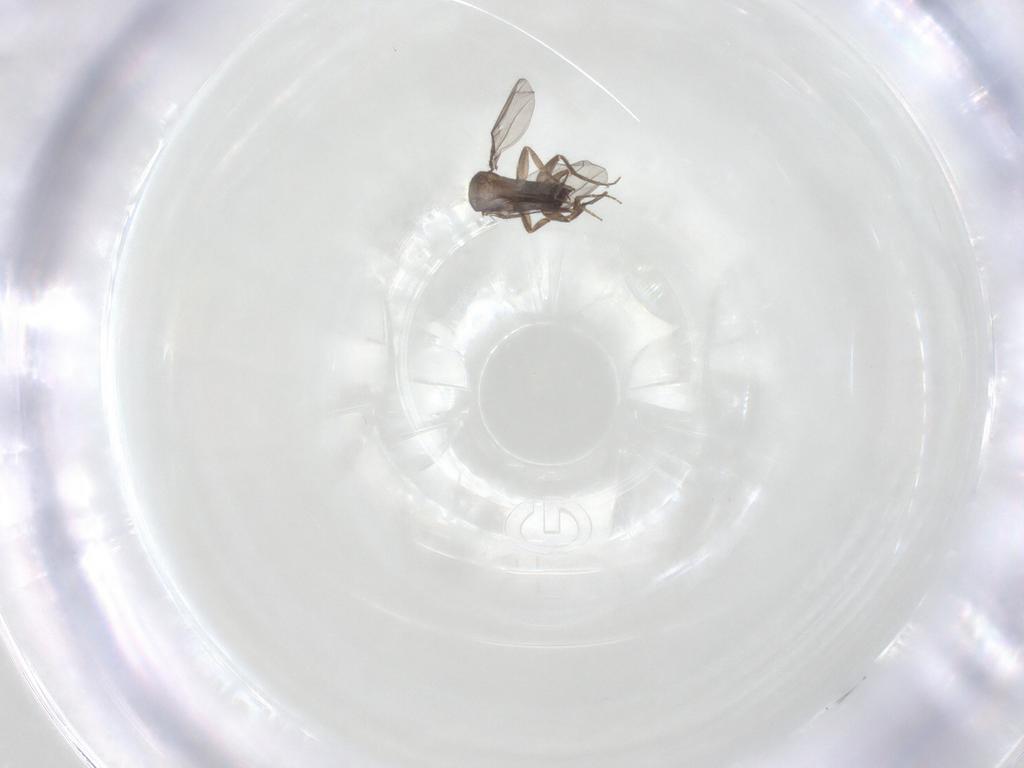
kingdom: Animalia
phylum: Arthropoda
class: Insecta
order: Diptera
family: Phoridae
